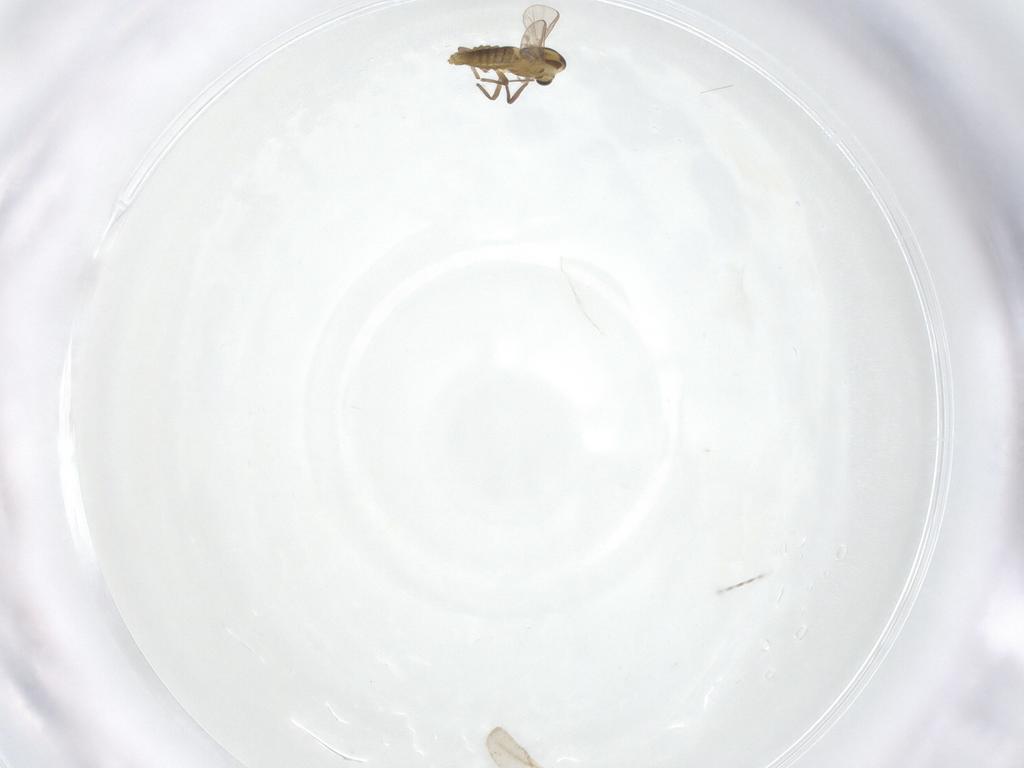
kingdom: Animalia
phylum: Arthropoda
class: Insecta
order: Diptera
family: Chironomidae
